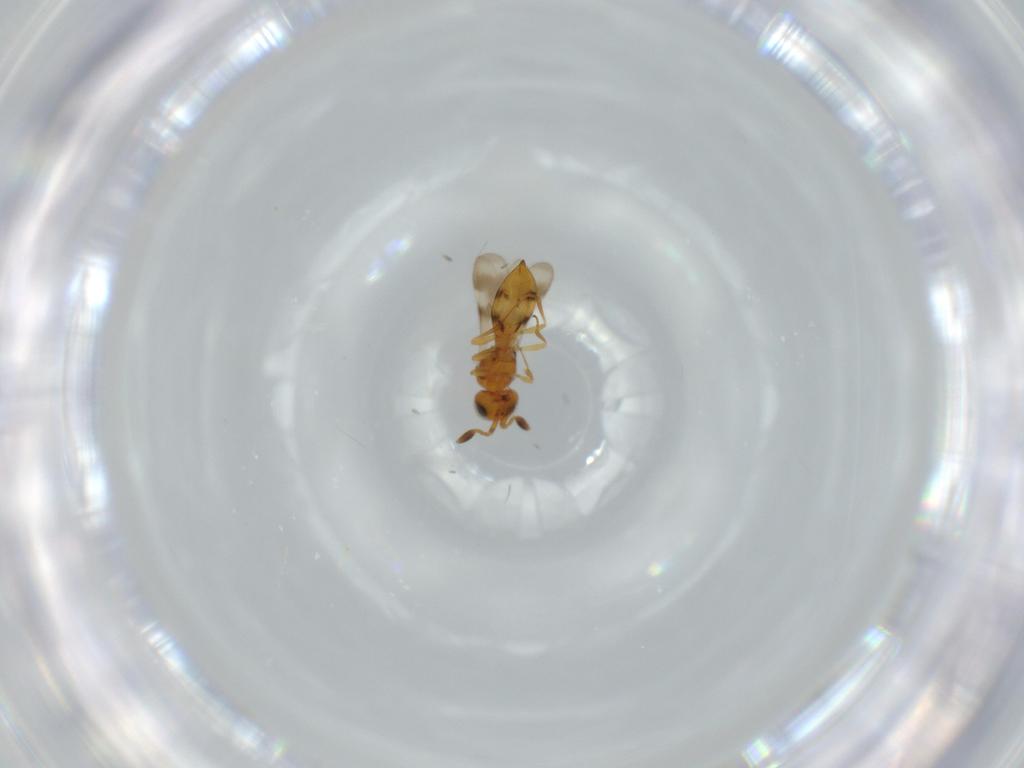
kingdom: Animalia
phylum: Arthropoda
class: Insecta
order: Hymenoptera
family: Scelionidae
